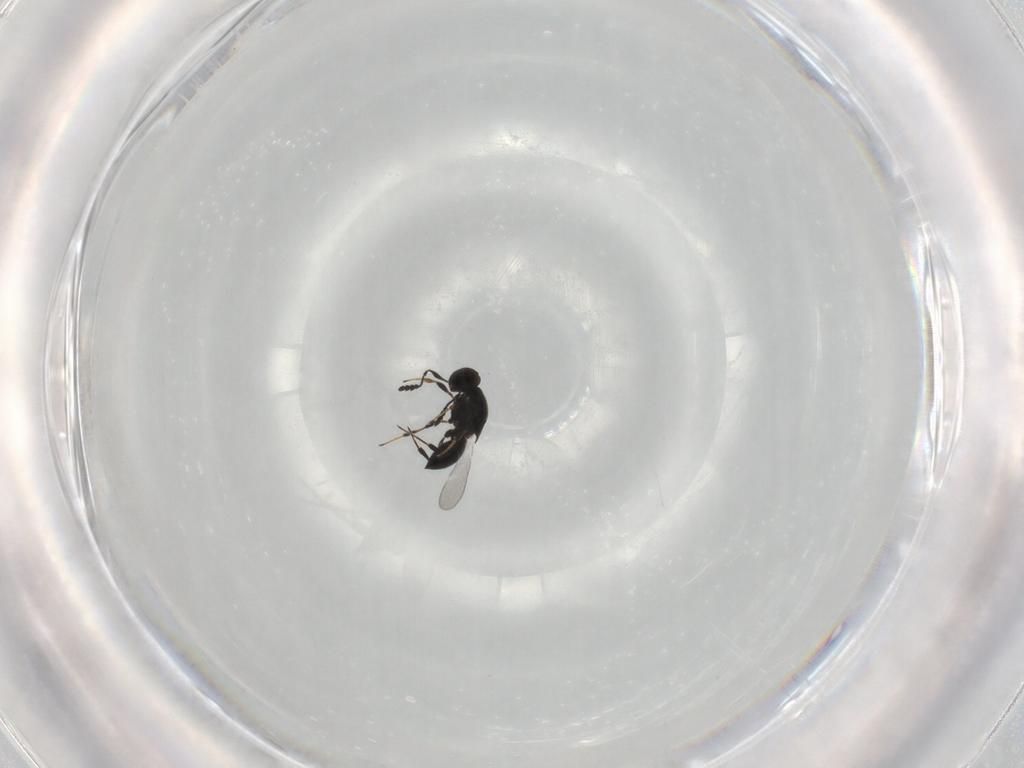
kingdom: Animalia
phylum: Arthropoda
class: Insecta
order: Hymenoptera
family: Platygastridae
